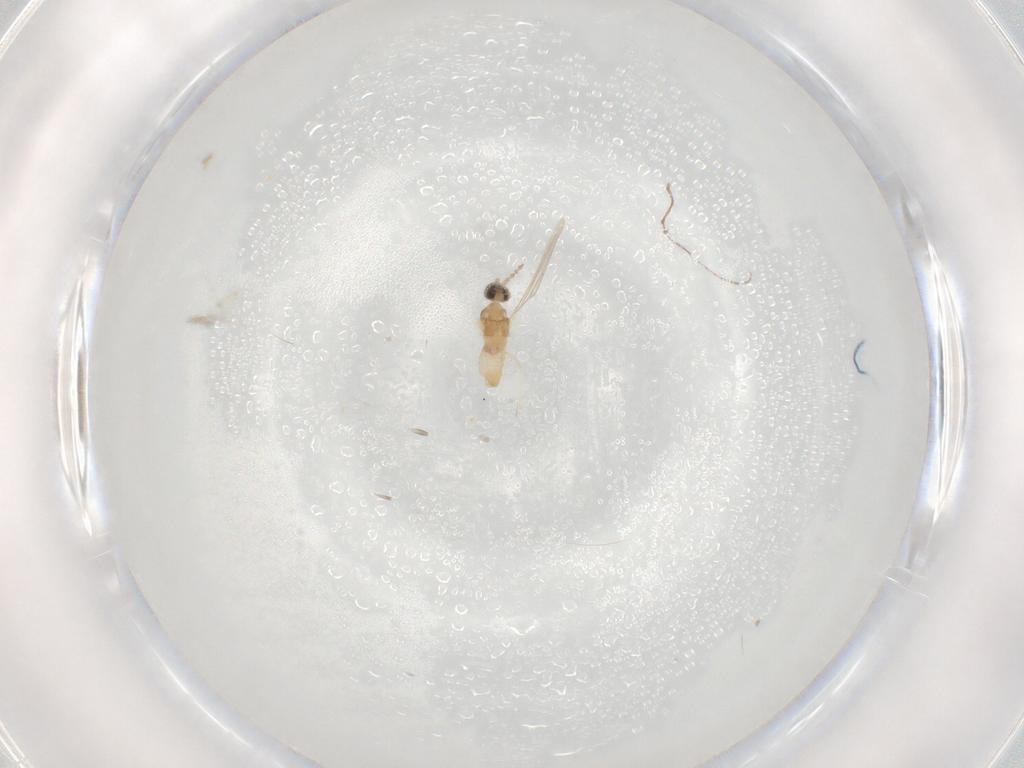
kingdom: Animalia
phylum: Arthropoda
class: Insecta
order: Diptera
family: Cecidomyiidae
